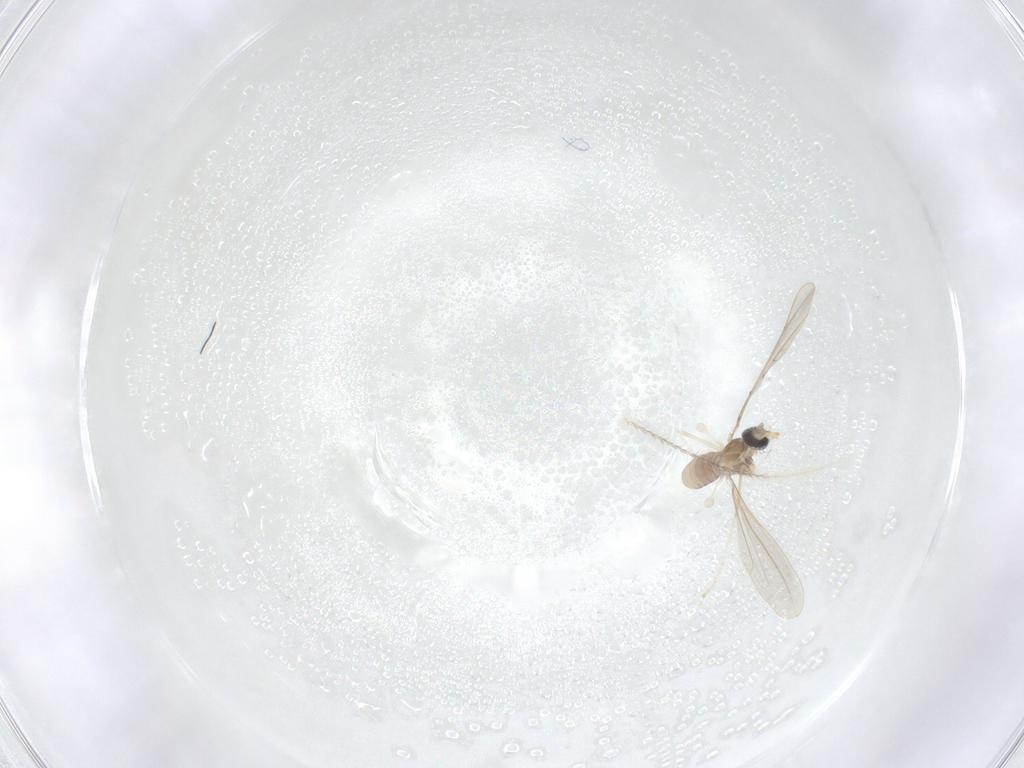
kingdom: Animalia
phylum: Arthropoda
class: Insecta
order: Diptera
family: Cecidomyiidae
